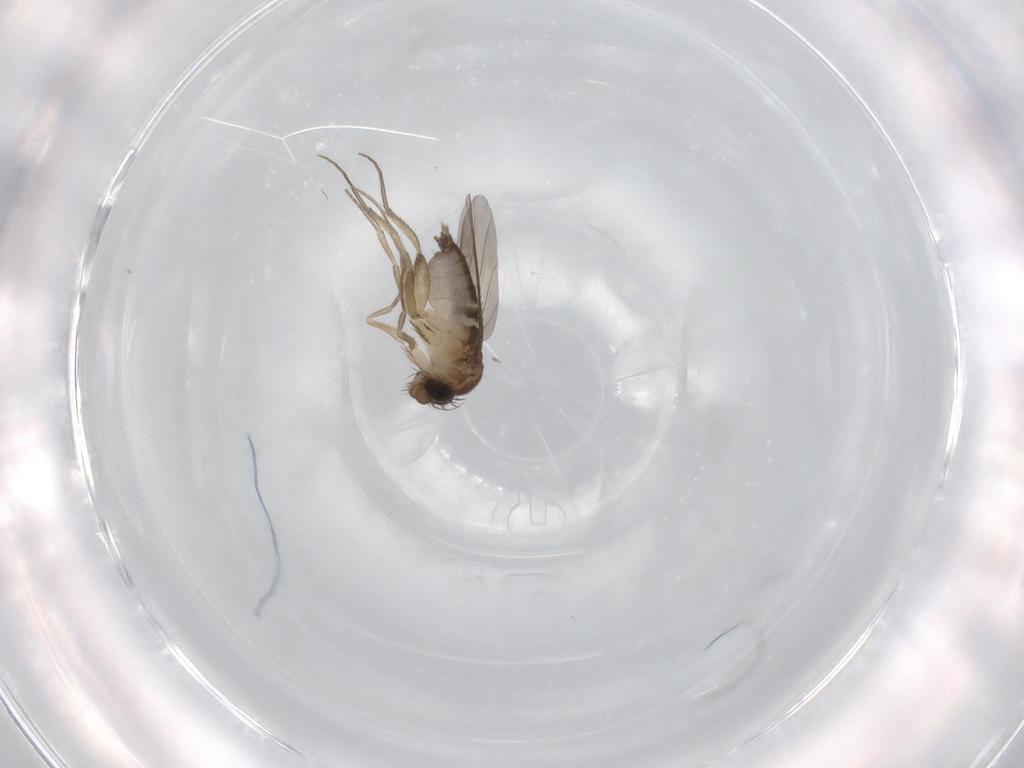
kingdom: Animalia
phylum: Arthropoda
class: Insecta
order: Diptera
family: Phoridae
